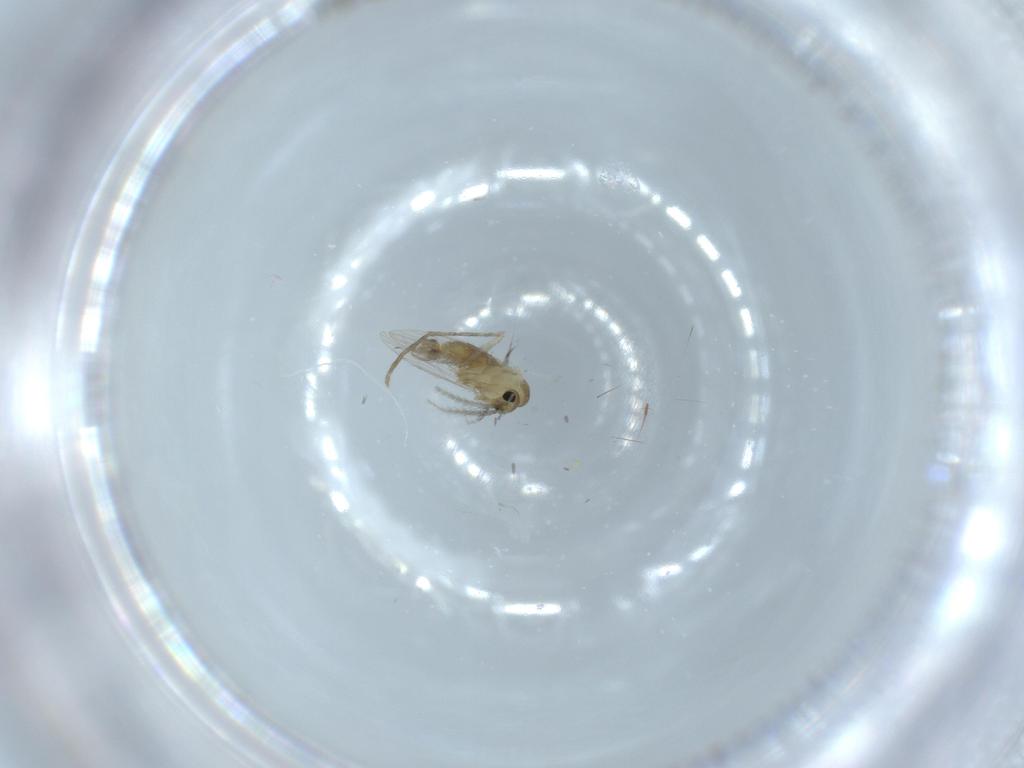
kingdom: Animalia
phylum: Arthropoda
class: Insecta
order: Diptera
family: Psychodidae
